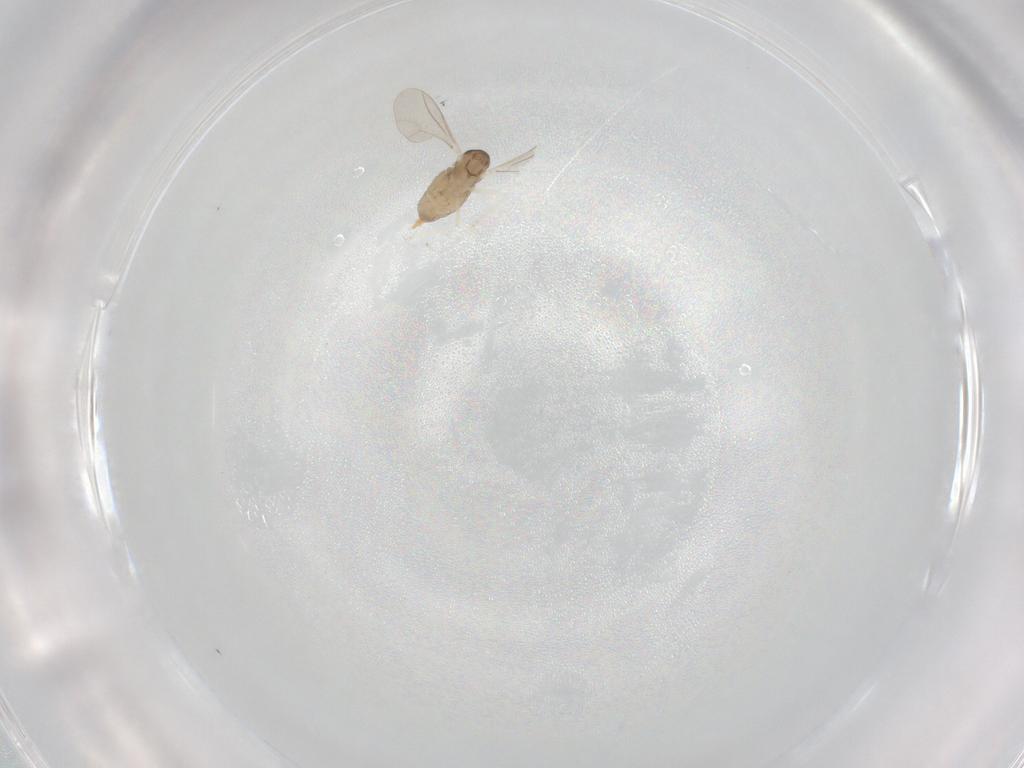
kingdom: Animalia
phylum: Arthropoda
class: Insecta
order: Diptera
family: Cecidomyiidae
